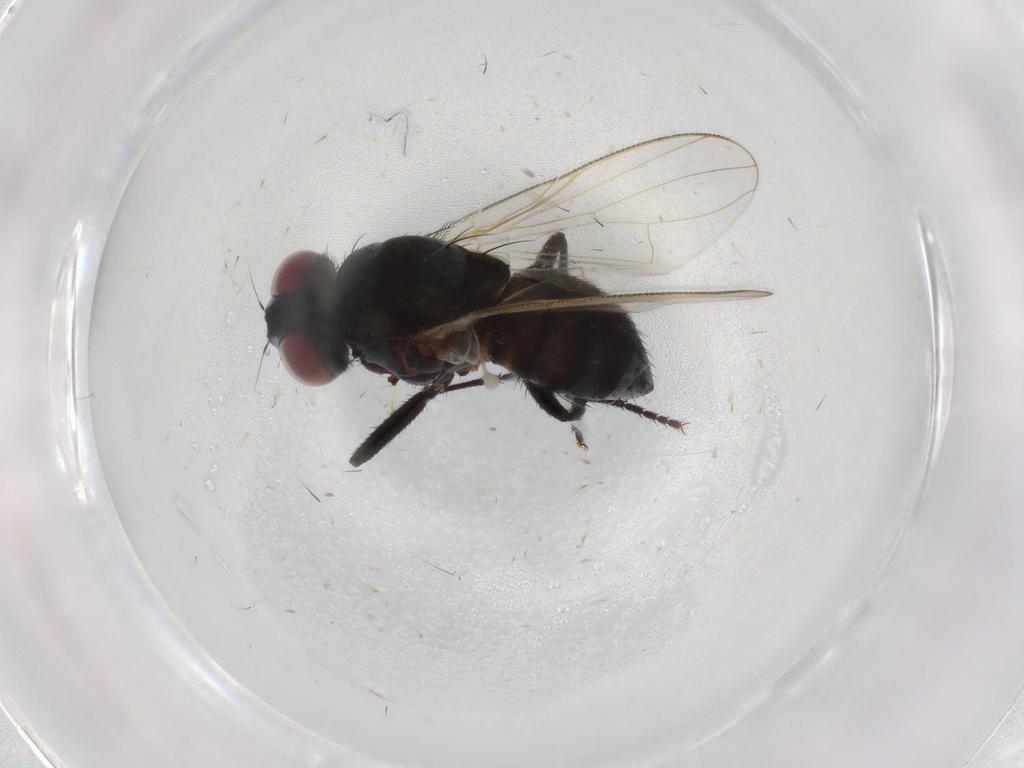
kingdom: Animalia
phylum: Arthropoda
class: Insecta
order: Diptera
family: Muscidae
